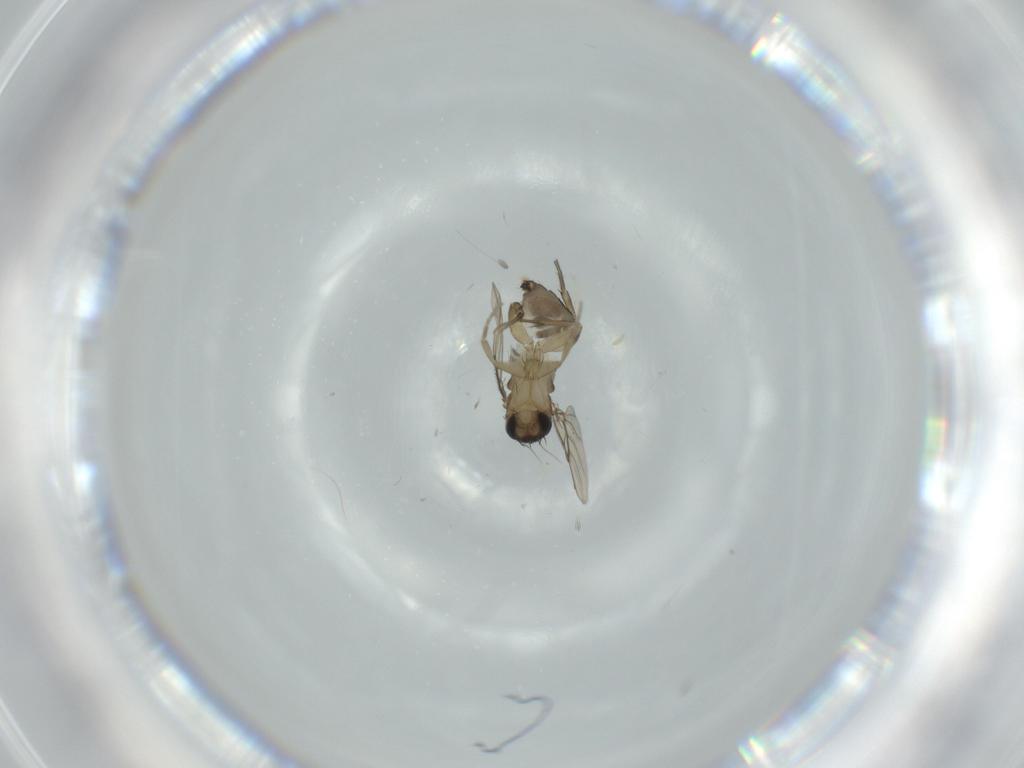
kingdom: Animalia
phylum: Arthropoda
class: Insecta
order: Diptera
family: Phoridae
